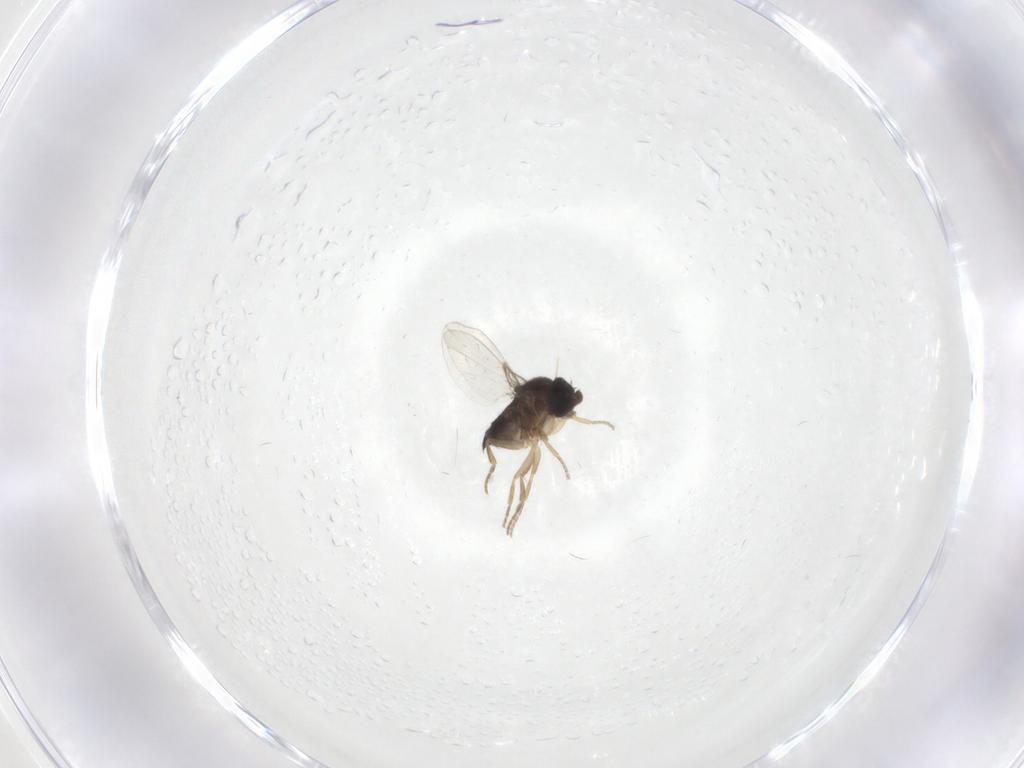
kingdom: Animalia
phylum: Arthropoda
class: Insecta
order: Diptera
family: Phoridae
